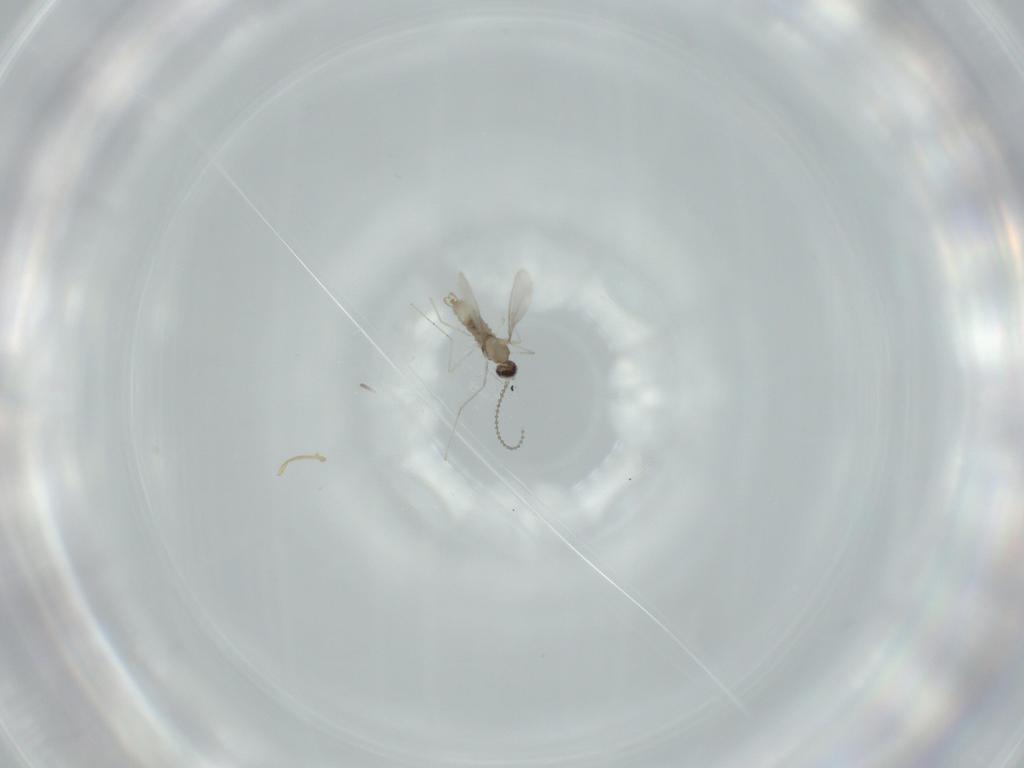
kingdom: Animalia
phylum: Arthropoda
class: Insecta
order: Diptera
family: Cecidomyiidae
